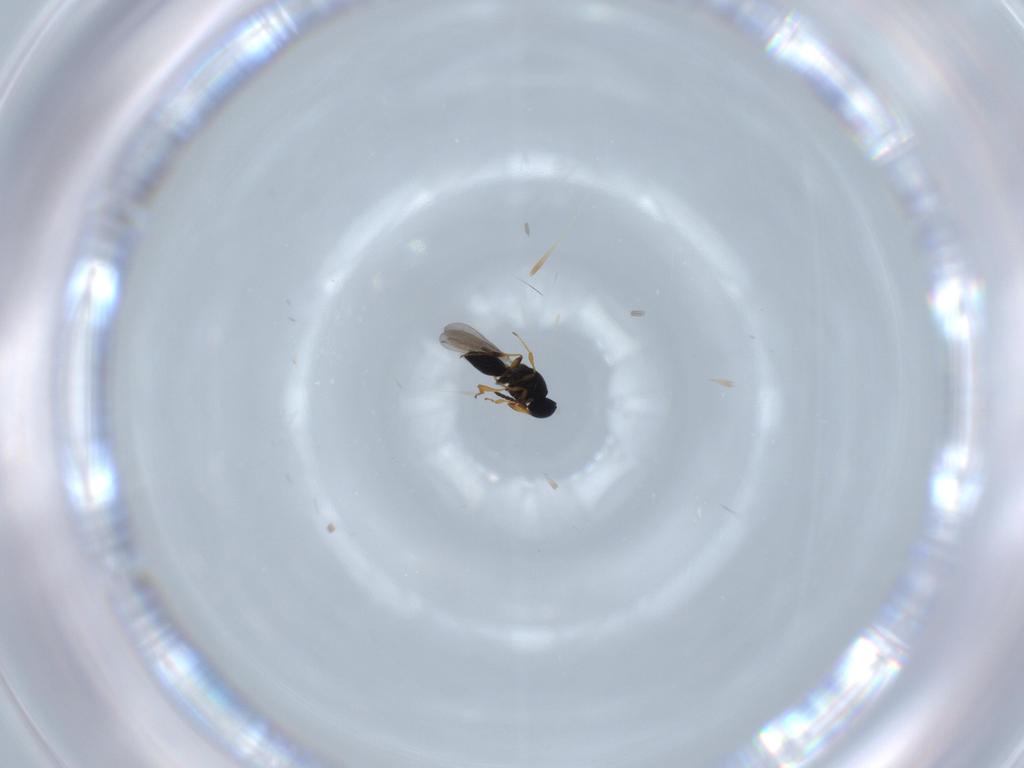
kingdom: Animalia
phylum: Arthropoda
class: Insecta
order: Hymenoptera
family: Platygastridae
